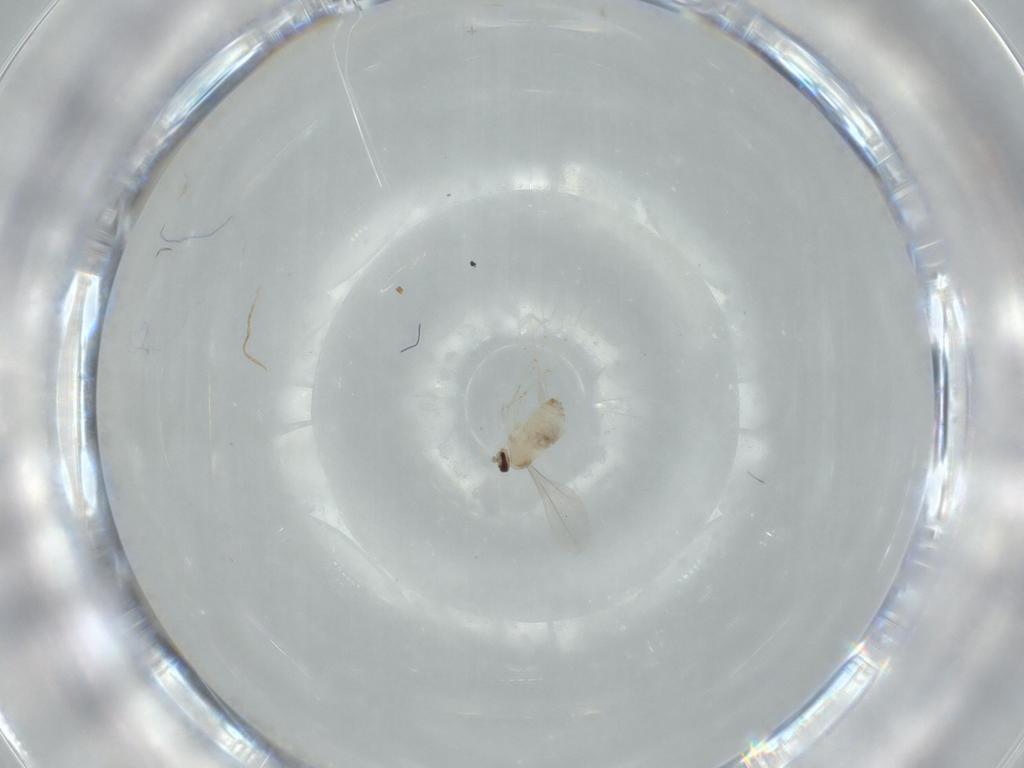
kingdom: Animalia
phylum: Arthropoda
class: Insecta
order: Diptera
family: Cecidomyiidae
